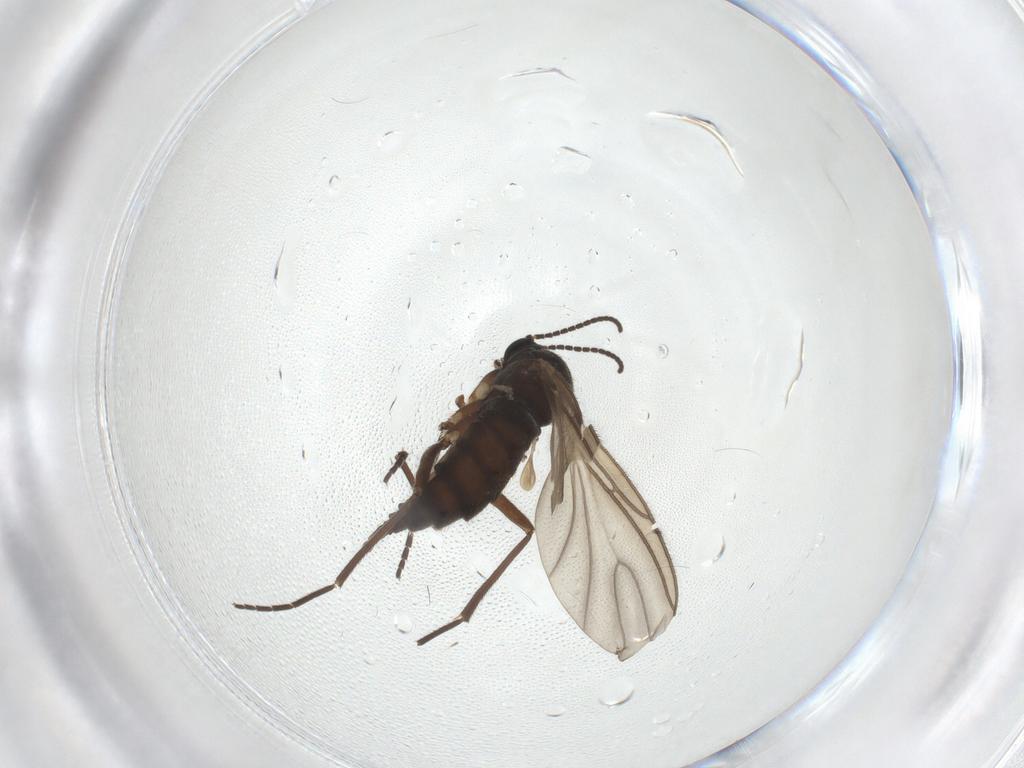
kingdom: Animalia
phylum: Arthropoda
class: Insecta
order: Diptera
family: Sciaridae
